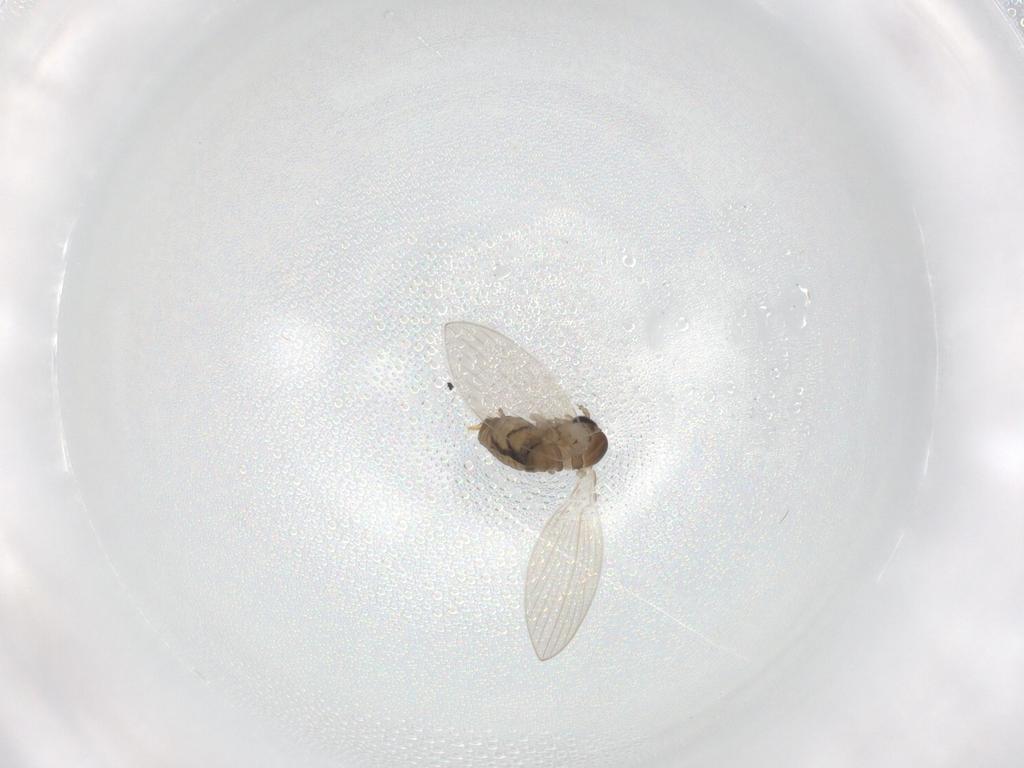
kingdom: Animalia
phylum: Arthropoda
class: Insecta
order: Diptera
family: Psychodidae
